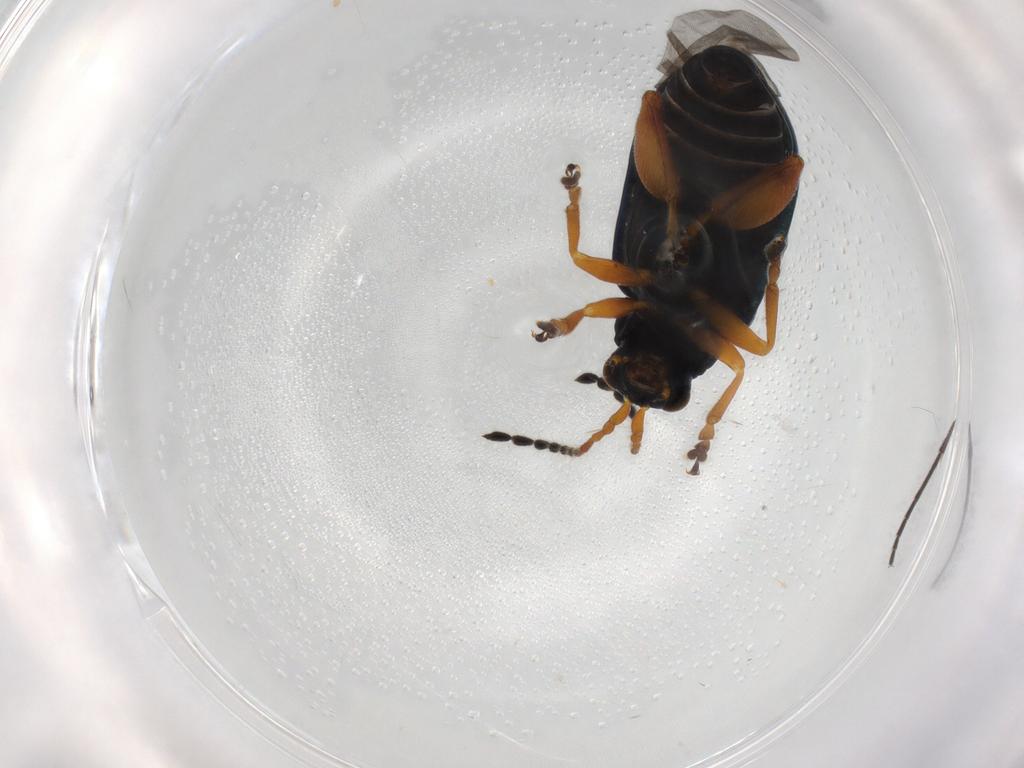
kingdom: Animalia
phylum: Arthropoda
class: Insecta
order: Coleoptera
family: Chrysomelidae
